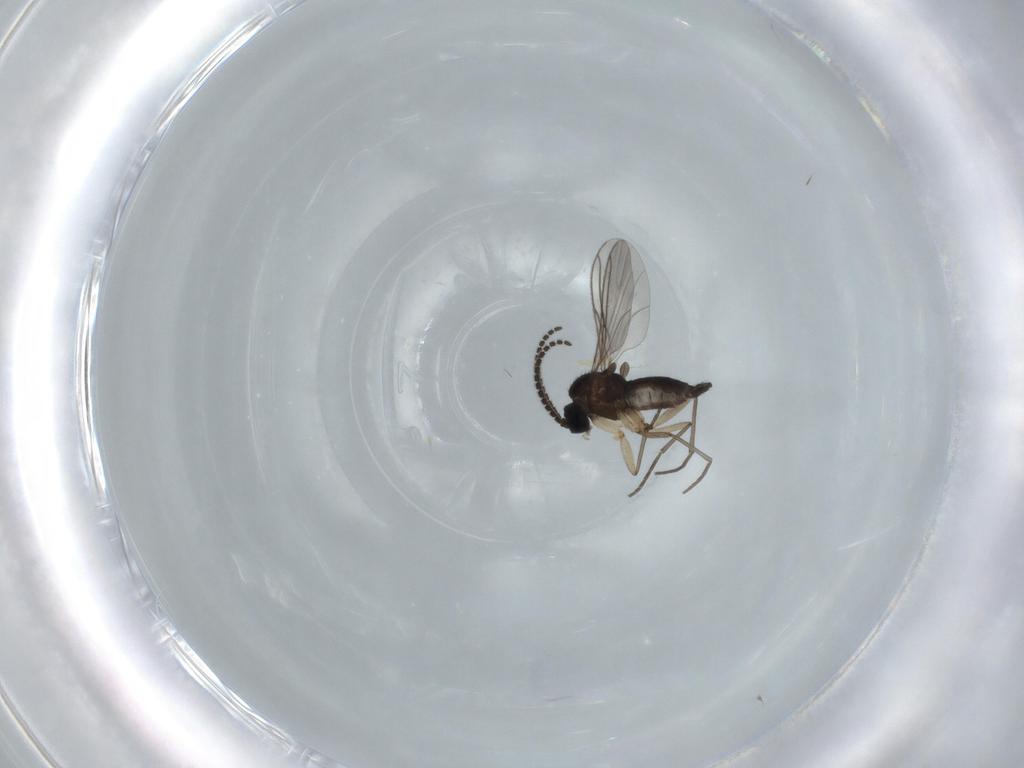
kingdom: Animalia
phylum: Arthropoda
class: Insecta
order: Diptera
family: Sciaridae
